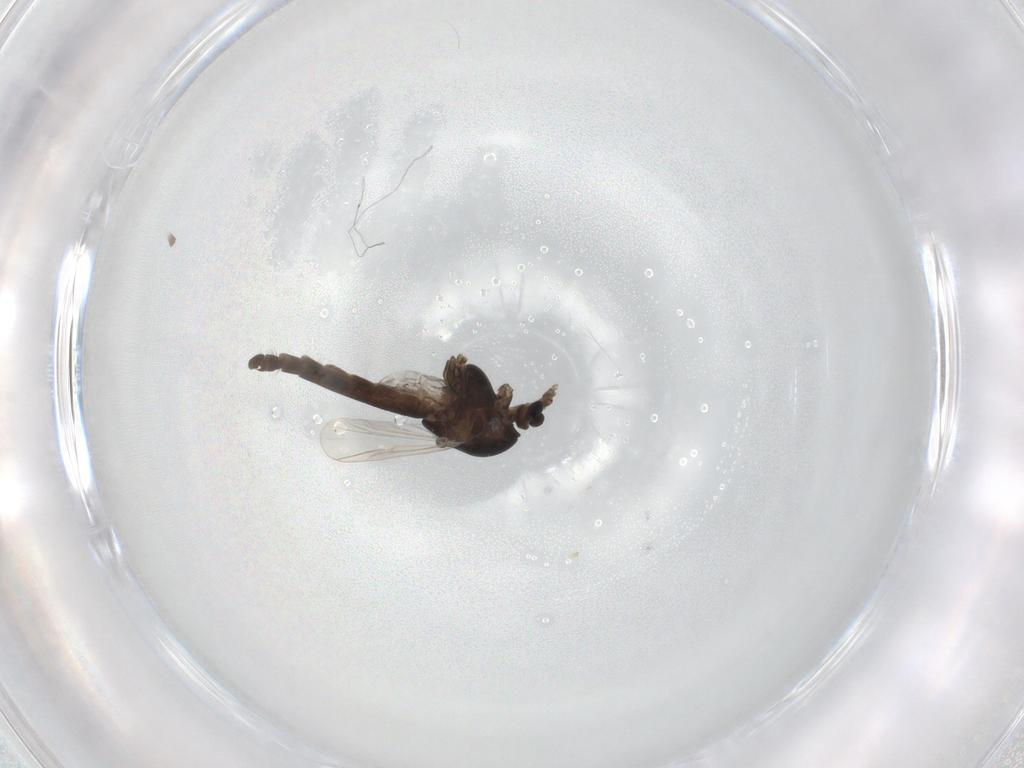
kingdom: Animalia
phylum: Arthropoda
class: Insecta
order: Diptera
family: Chironomidae
